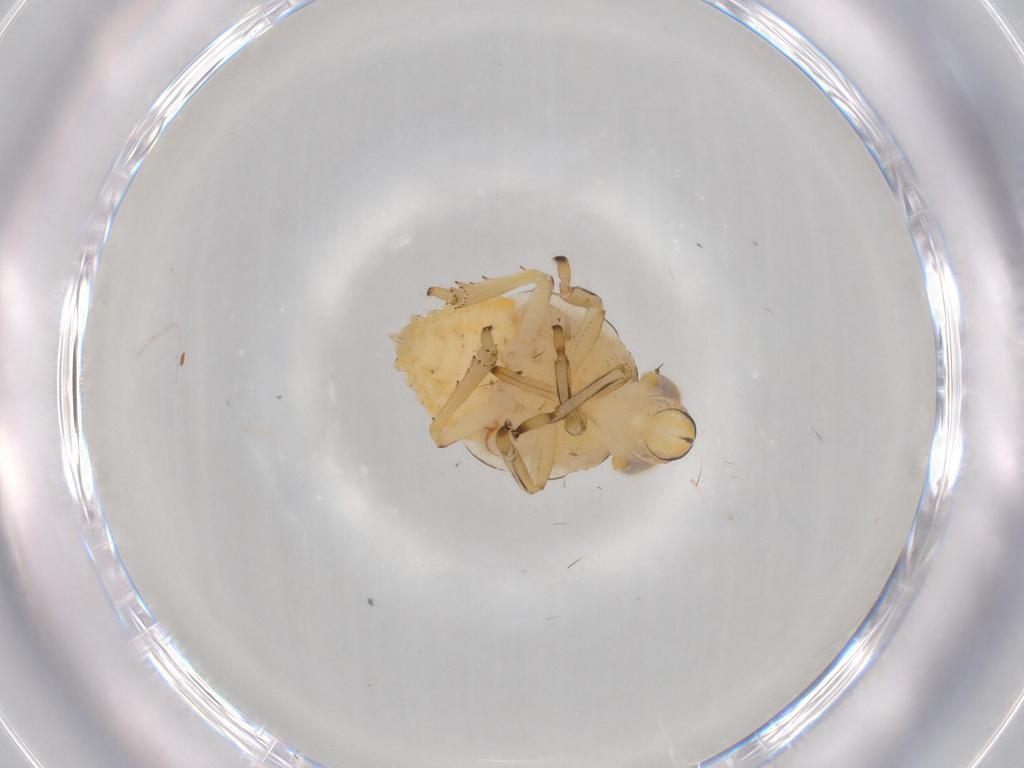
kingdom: Animalia
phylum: Arthropoda
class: Insecta
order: Hemiptera
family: Issidae
